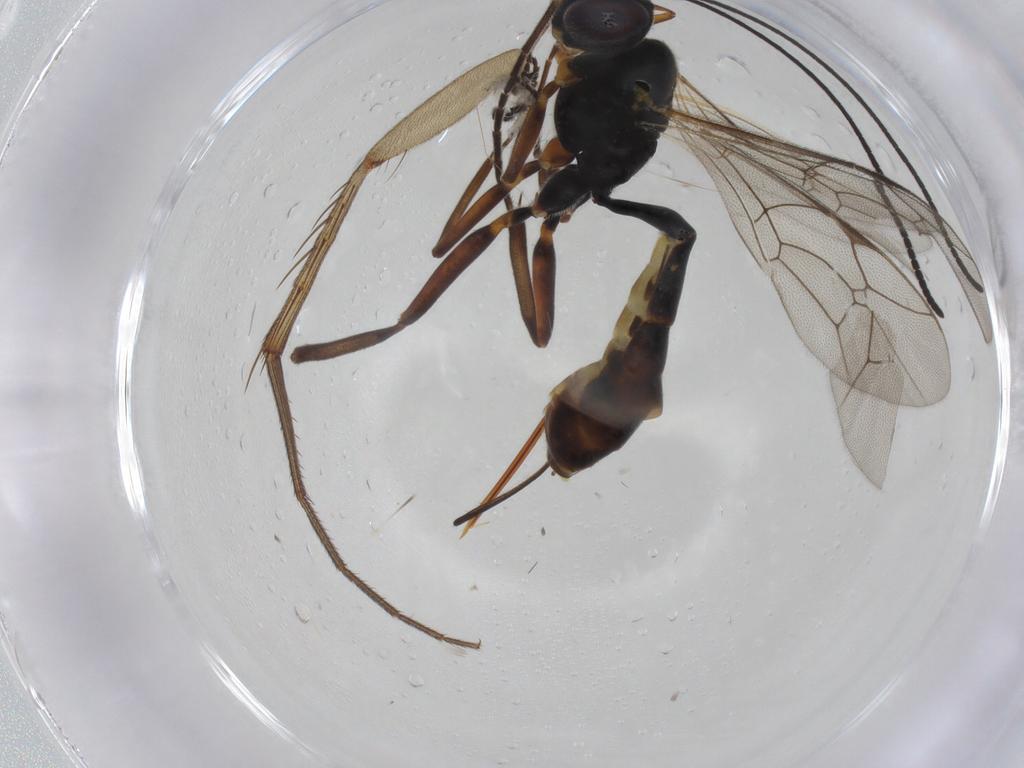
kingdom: Animalia
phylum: Arthropoda
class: Insecta
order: Hymenoptera
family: Ichneumonidae
